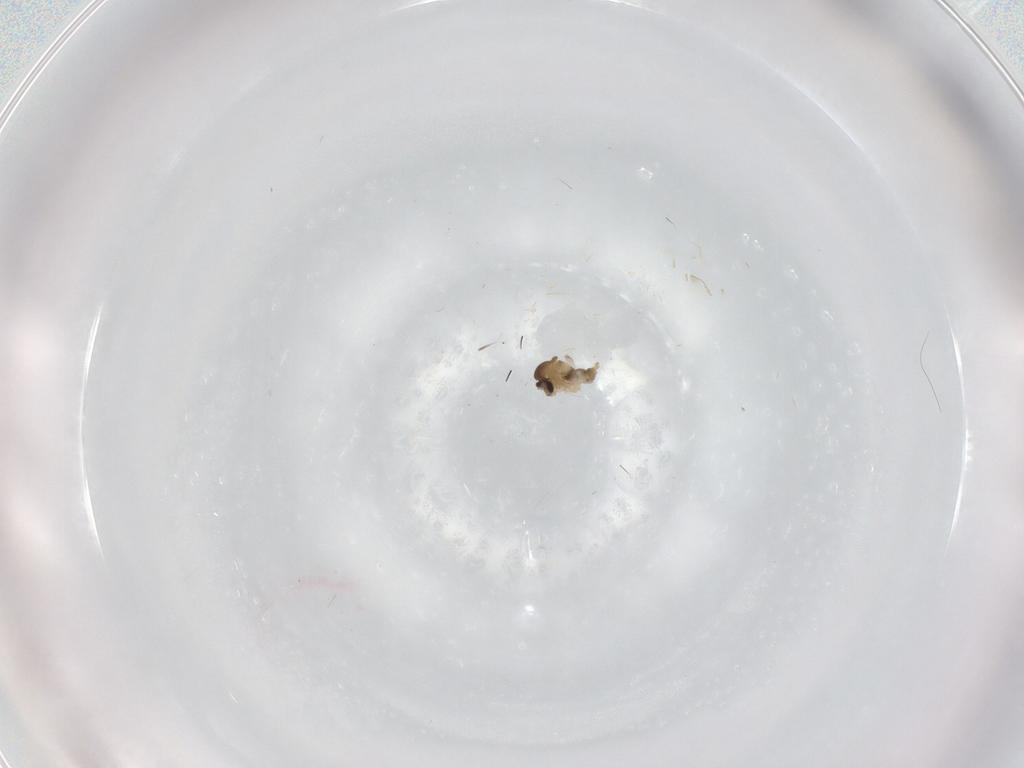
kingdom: Animalia
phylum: Arthropoda
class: Insecta
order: Diptera
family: Cecidomyiidae
